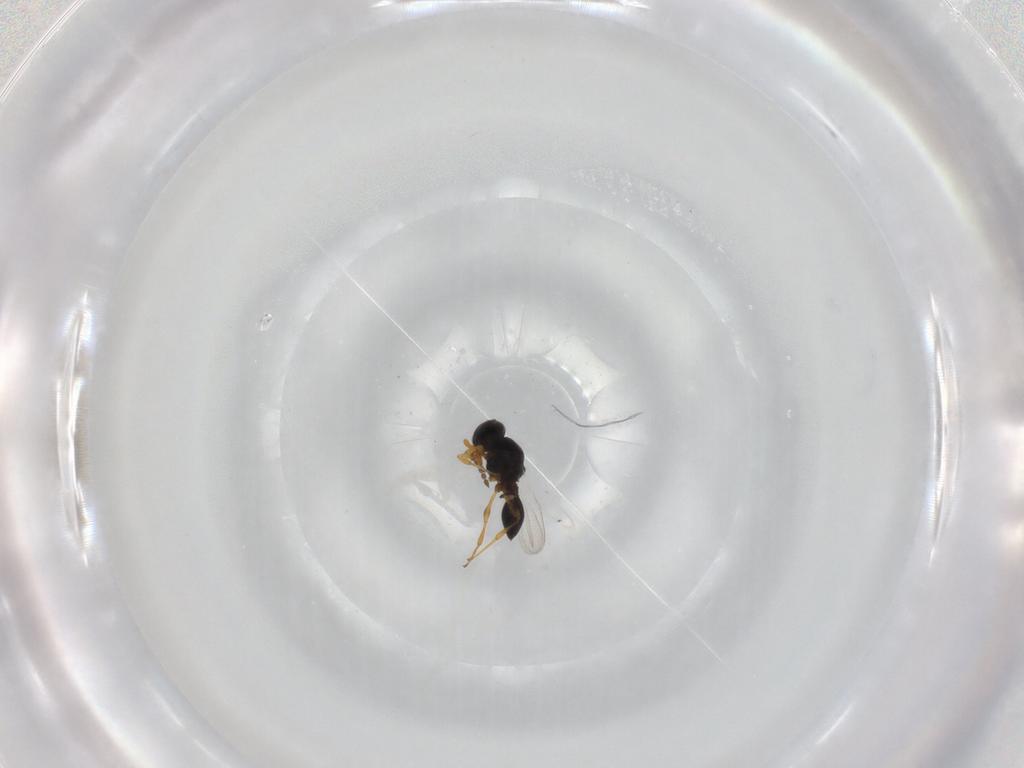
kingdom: Animalia
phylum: Arthropoda
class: Insecta
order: Hymenoptera
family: Platygastridae
